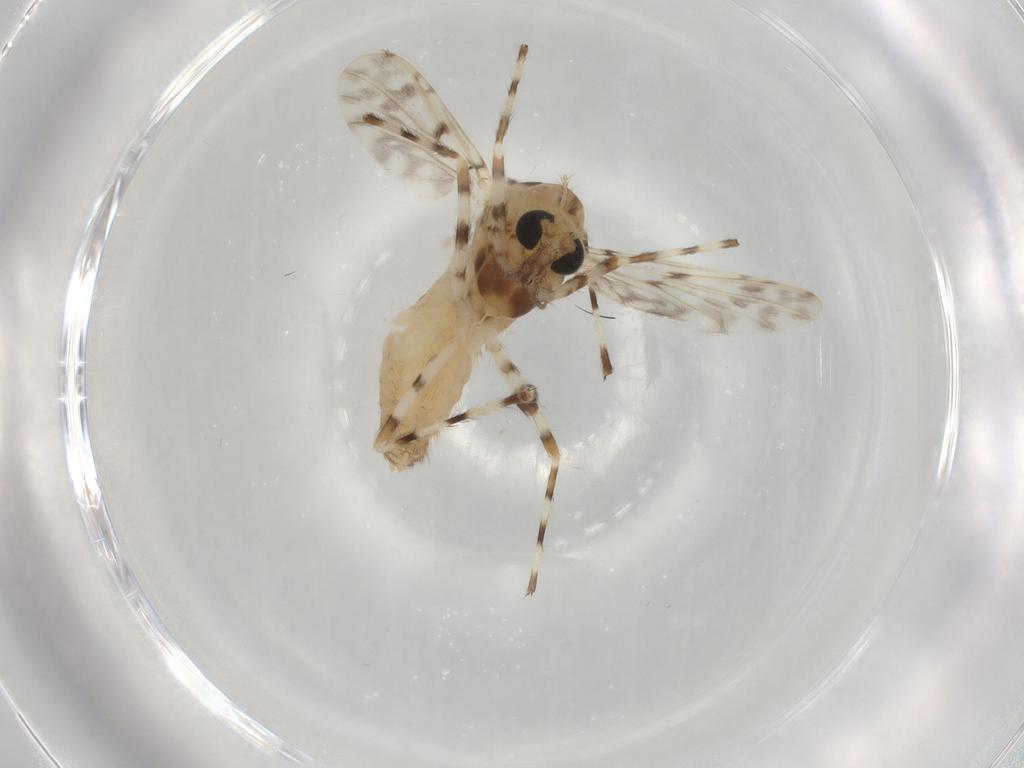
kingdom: Animalia
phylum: Arthropoda
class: Insecta
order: Diptera
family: Chironomidae
